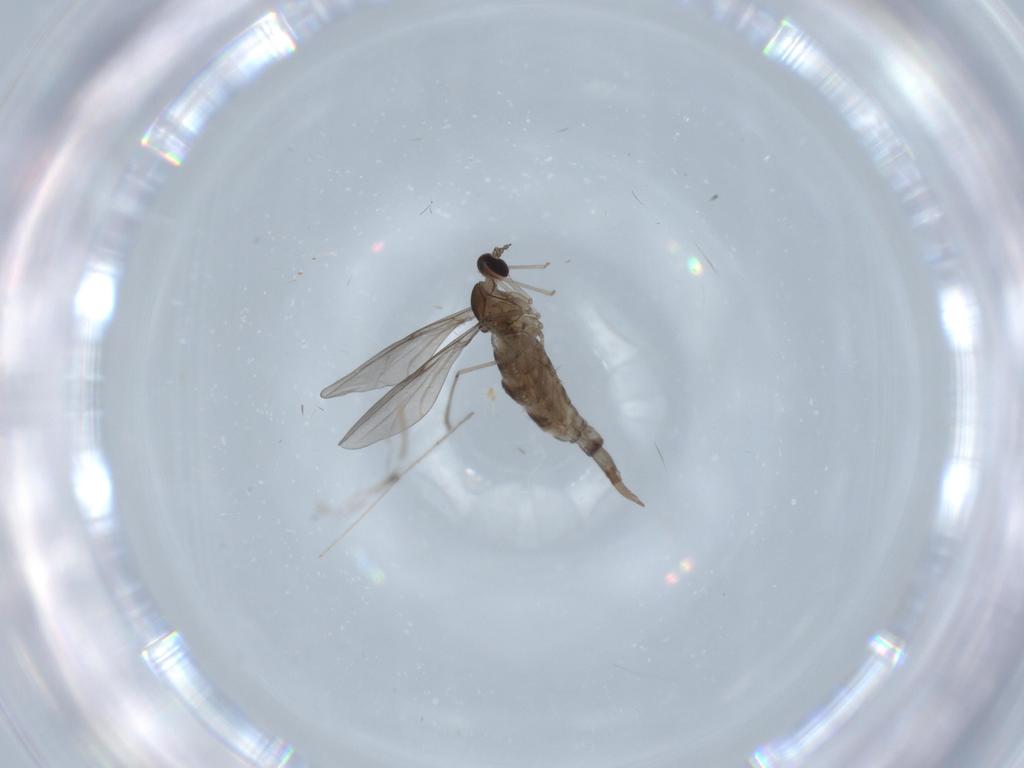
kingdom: Animalia
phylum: Arthropoda
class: Insecta
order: Diptera
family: Cecidomyiidae
